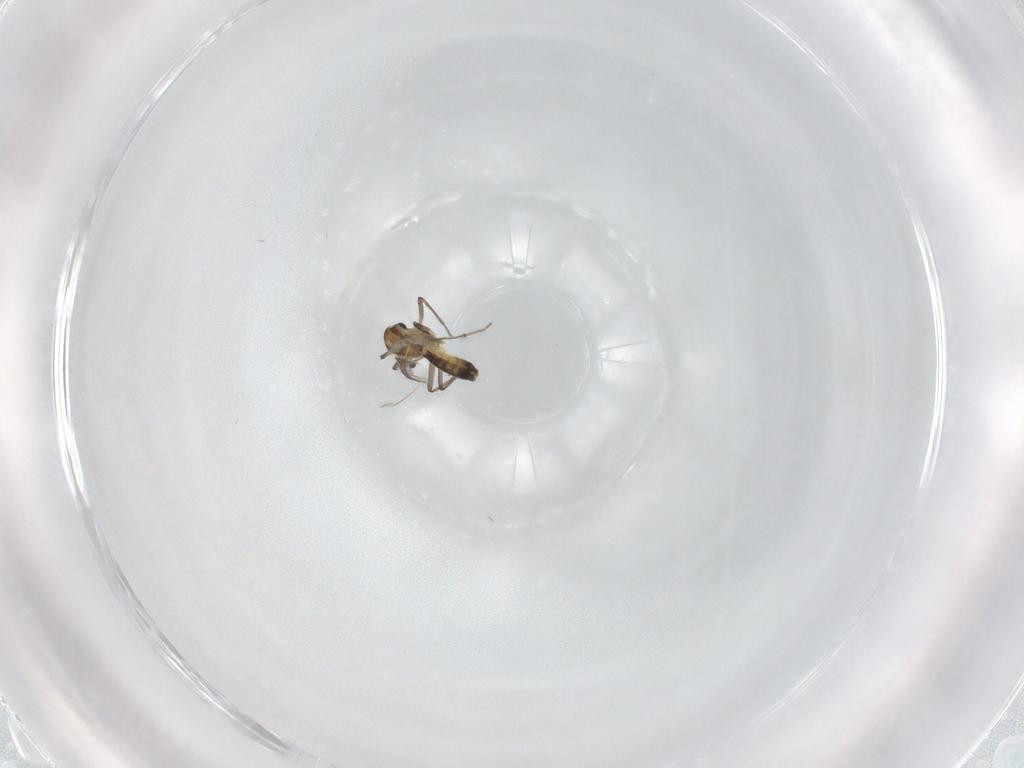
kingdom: Animalia
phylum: Arthropoda
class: Insecta
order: Diptera
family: Chironomidae
